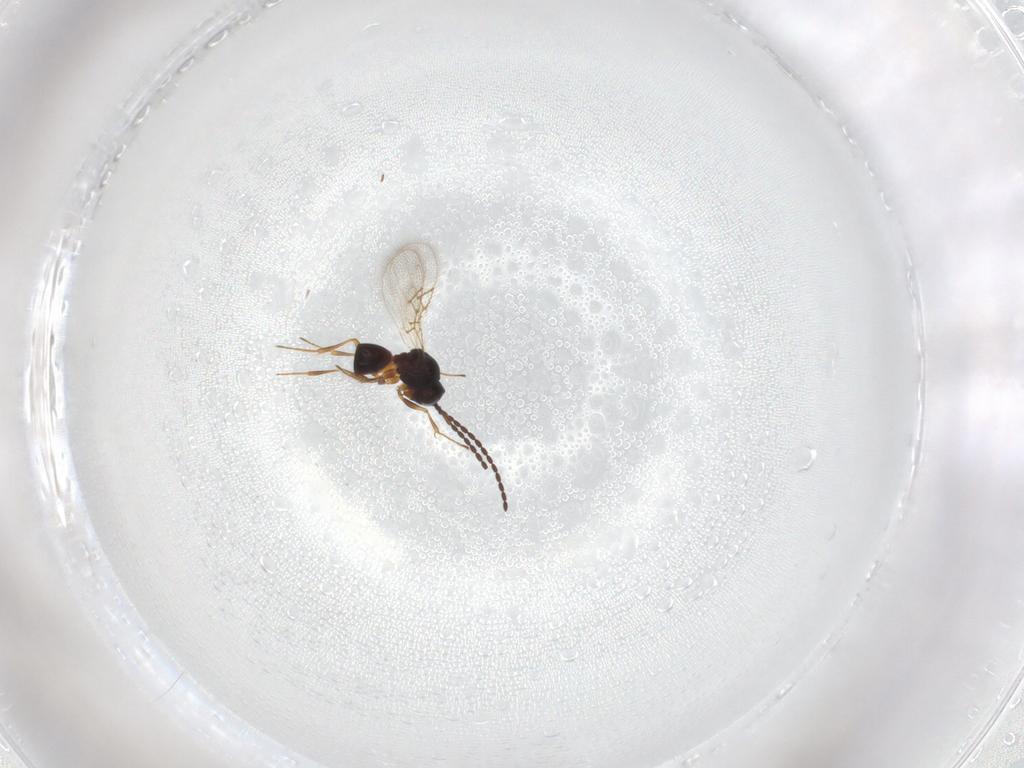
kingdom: Animalia
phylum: Arthropoda
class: Insecta
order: Hymenoptera
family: Figitidae
